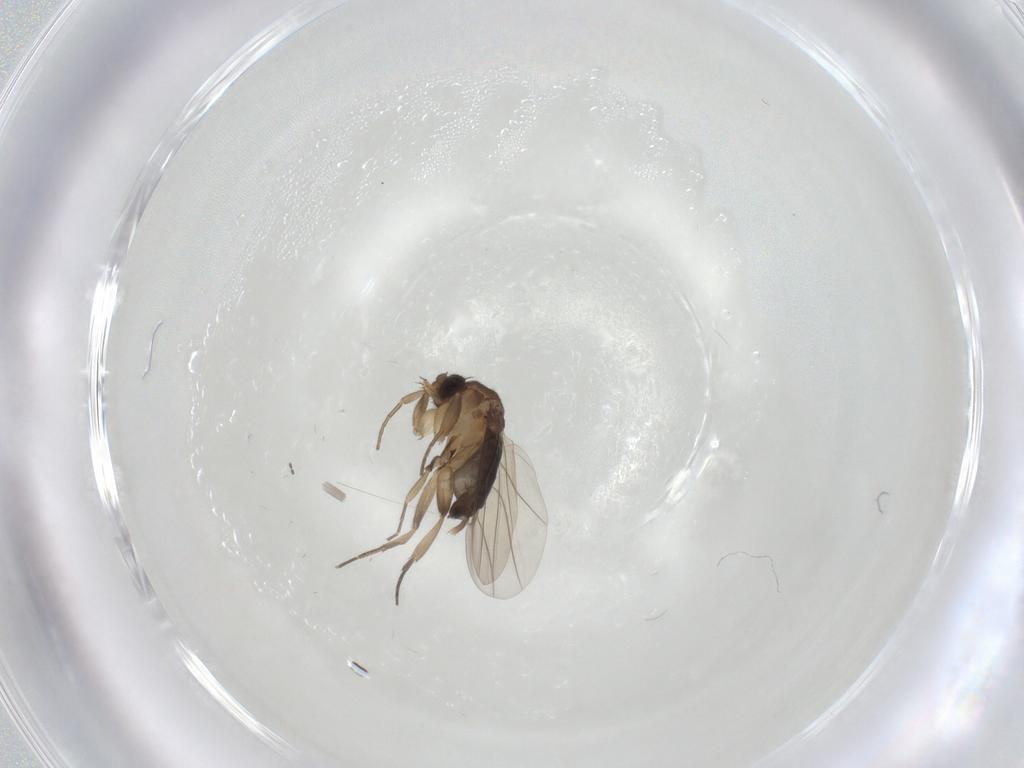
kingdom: Animalia
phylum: Arthropoda
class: Insecta
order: Diptera
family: Phoridae
